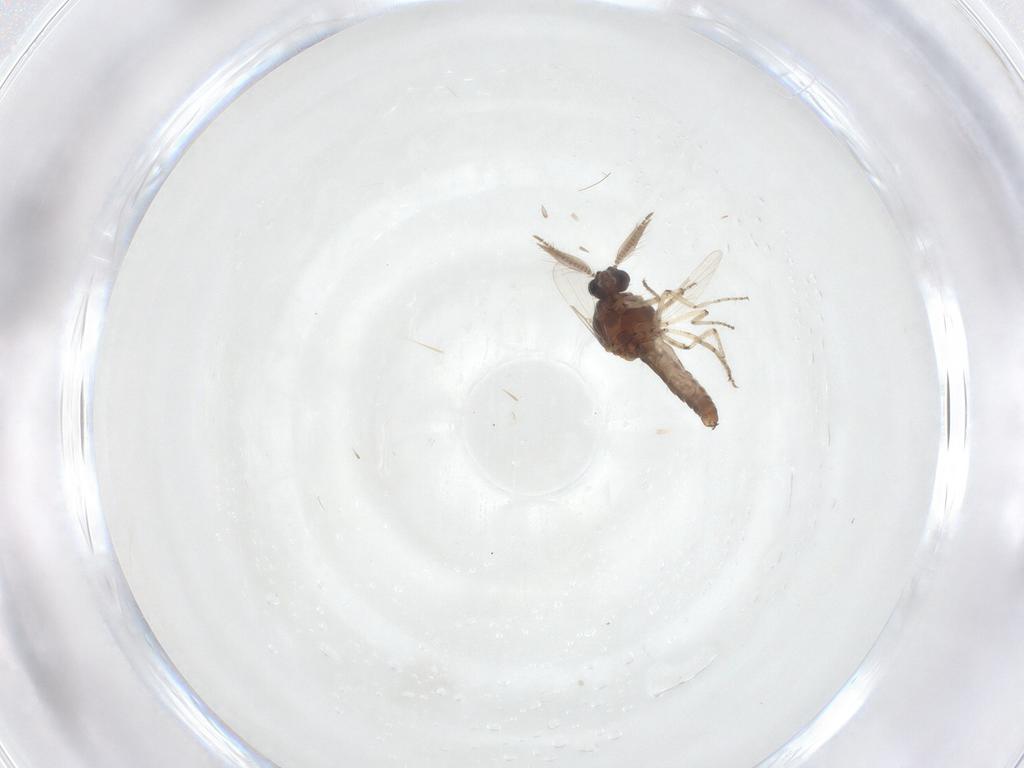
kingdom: Animalia
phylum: Arthropoda
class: Insecta
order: Diptera
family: Ceratopogonidae
